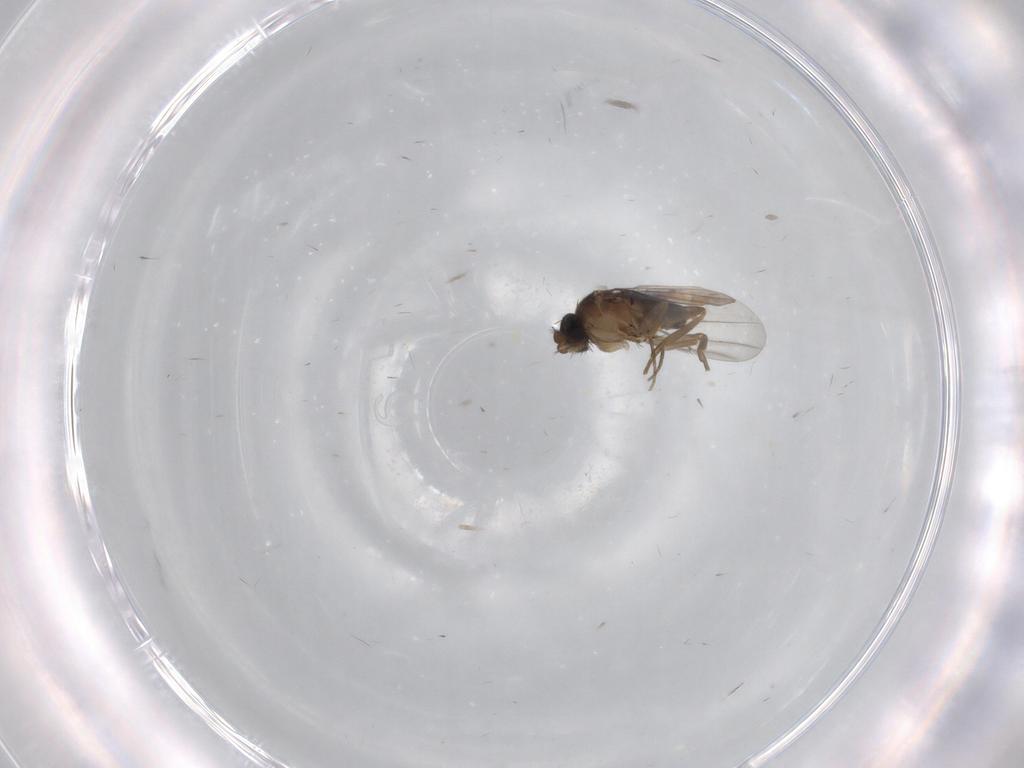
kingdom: Animalia
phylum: Arthropoda
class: Insecta
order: Diptera
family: Phoridae
